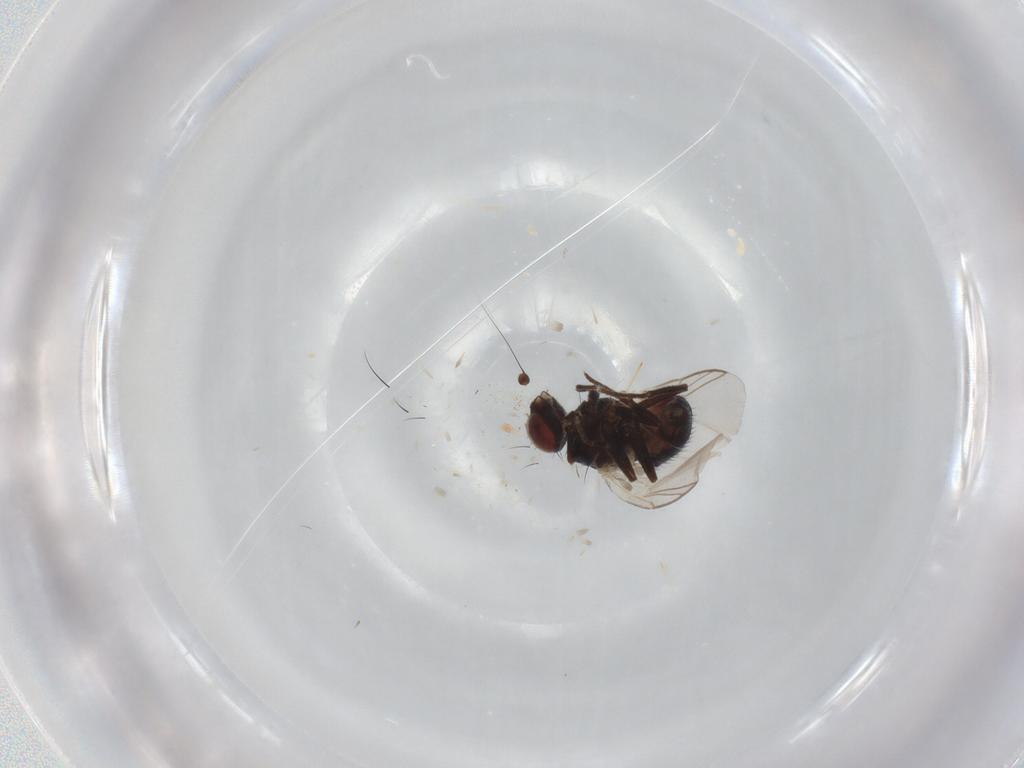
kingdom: Animalia
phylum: Arthropoda
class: Insecta
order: Diptera
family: Hybotidae
